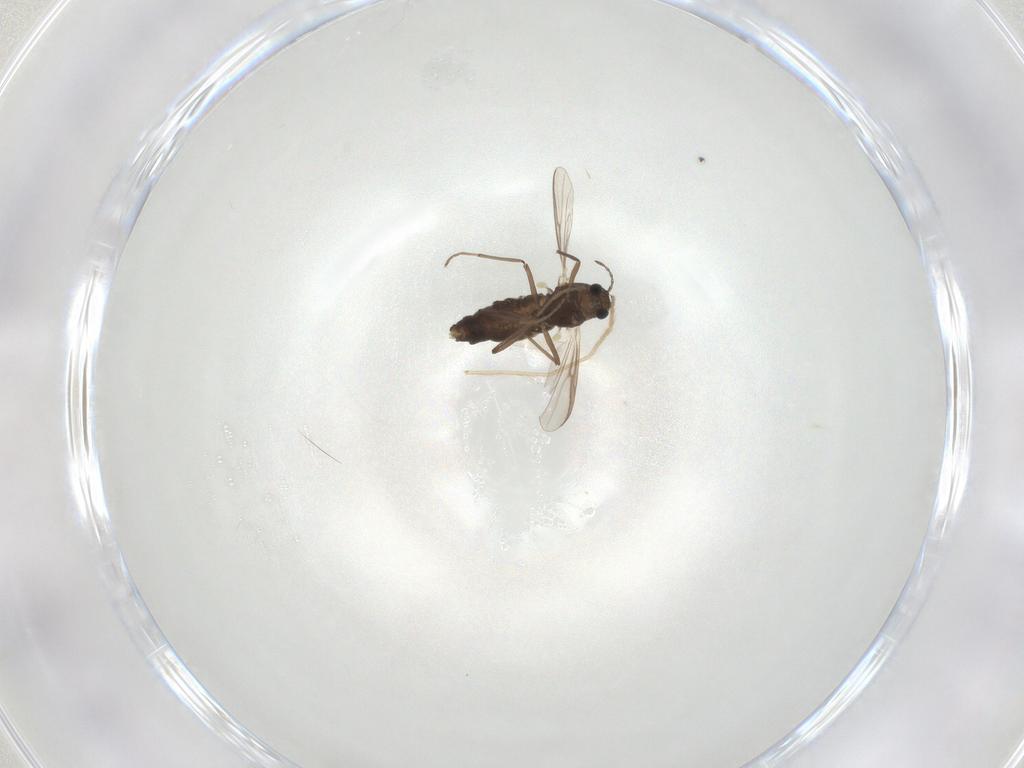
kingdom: Animalia
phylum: Arthropoda
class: Insecta
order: Diptera
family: Chironomidae
